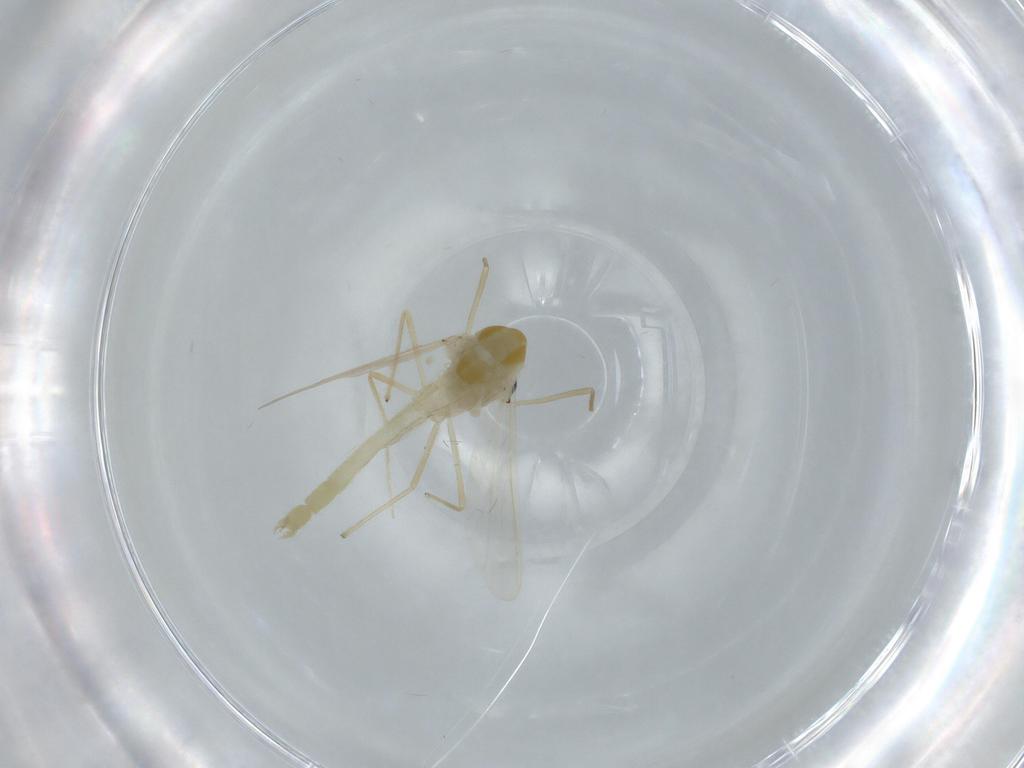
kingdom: Animalia
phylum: Arthropoda
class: Insecta
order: Diptera
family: Chironomidae
